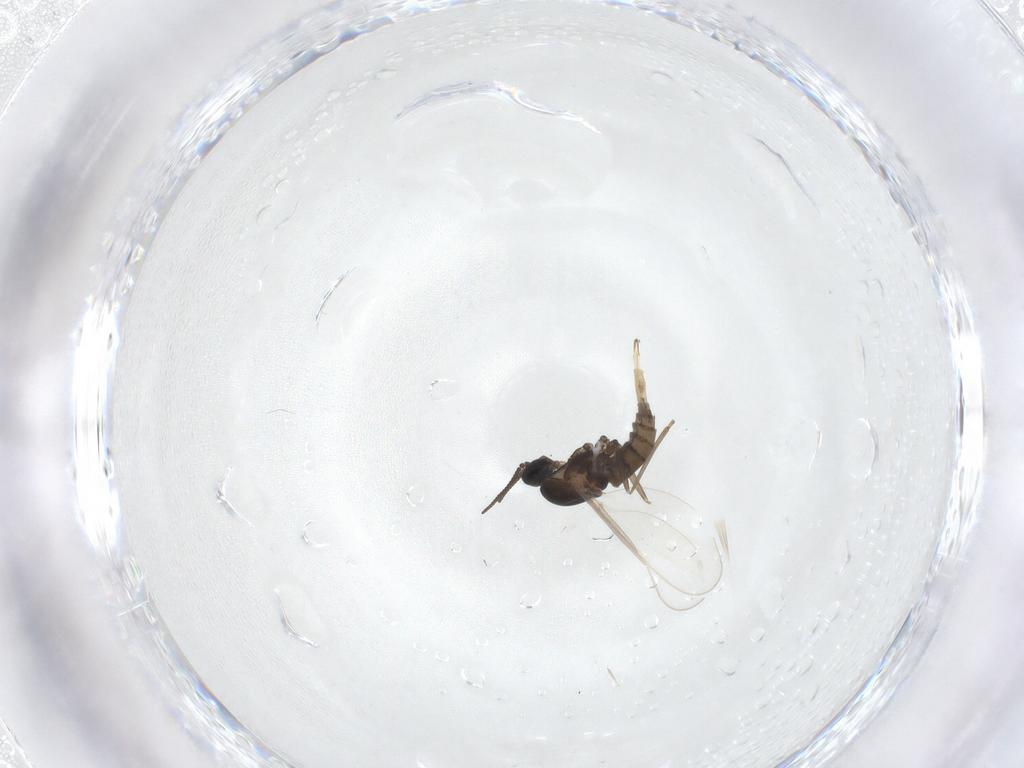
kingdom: Animalia
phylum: Arthropoda
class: Insecta
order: Diptera
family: Cecidomyiidae
